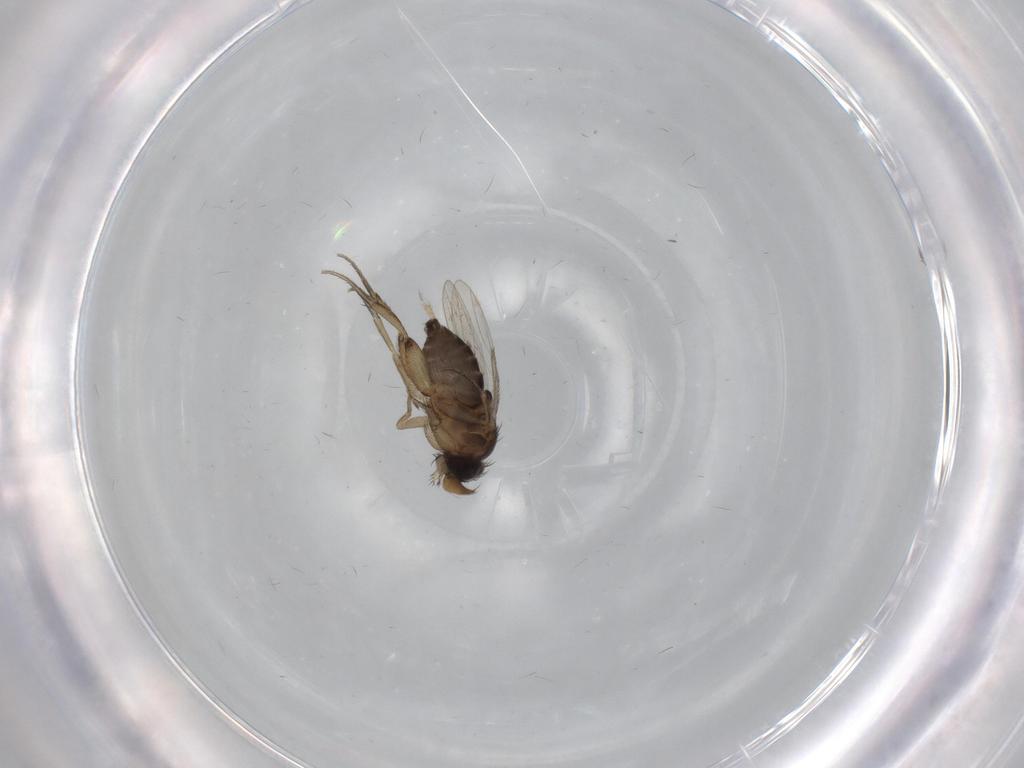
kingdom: Animalia
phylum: Arthropoda
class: Insecta
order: Diptera
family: Phoridae
